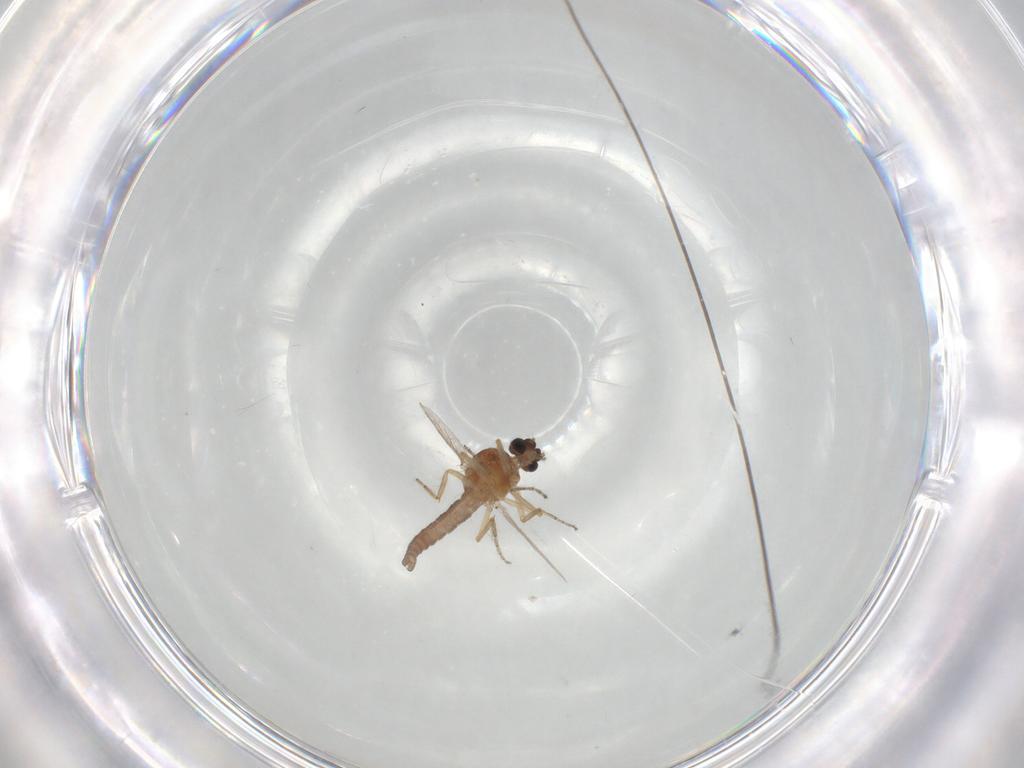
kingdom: Animalia
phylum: Arthropoda
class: Insecta
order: Diptera
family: Ceratopogonidae
